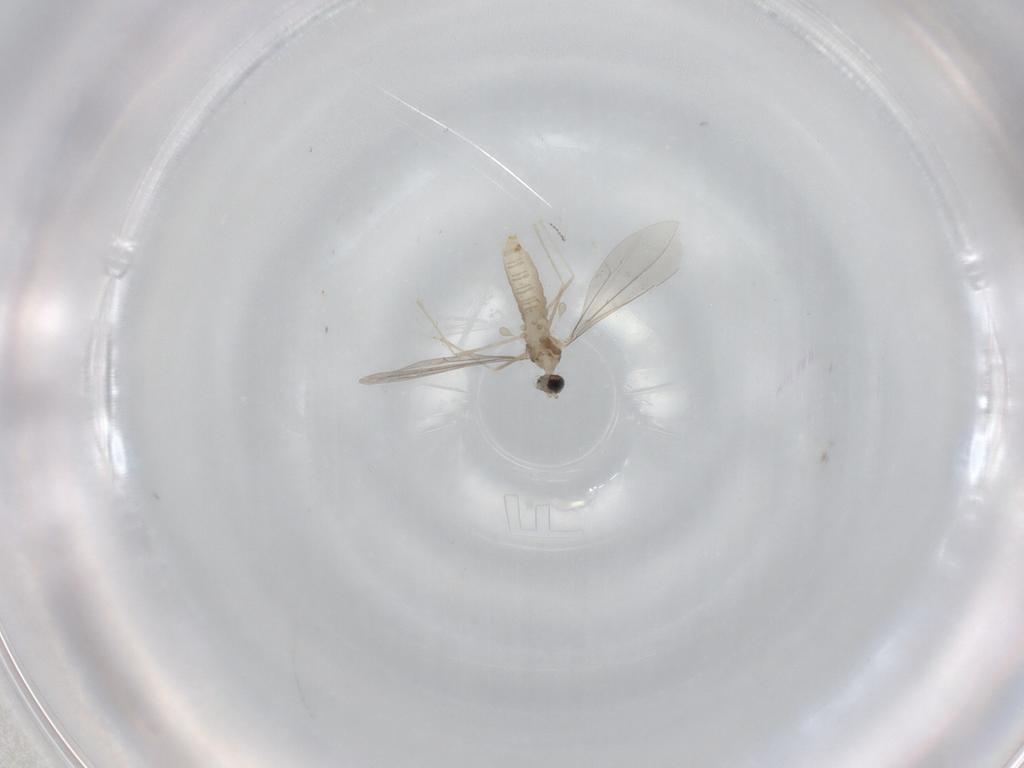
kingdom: Animalia
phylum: Arthropoda
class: Insecta
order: Diptera
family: Cecidomyiidae
